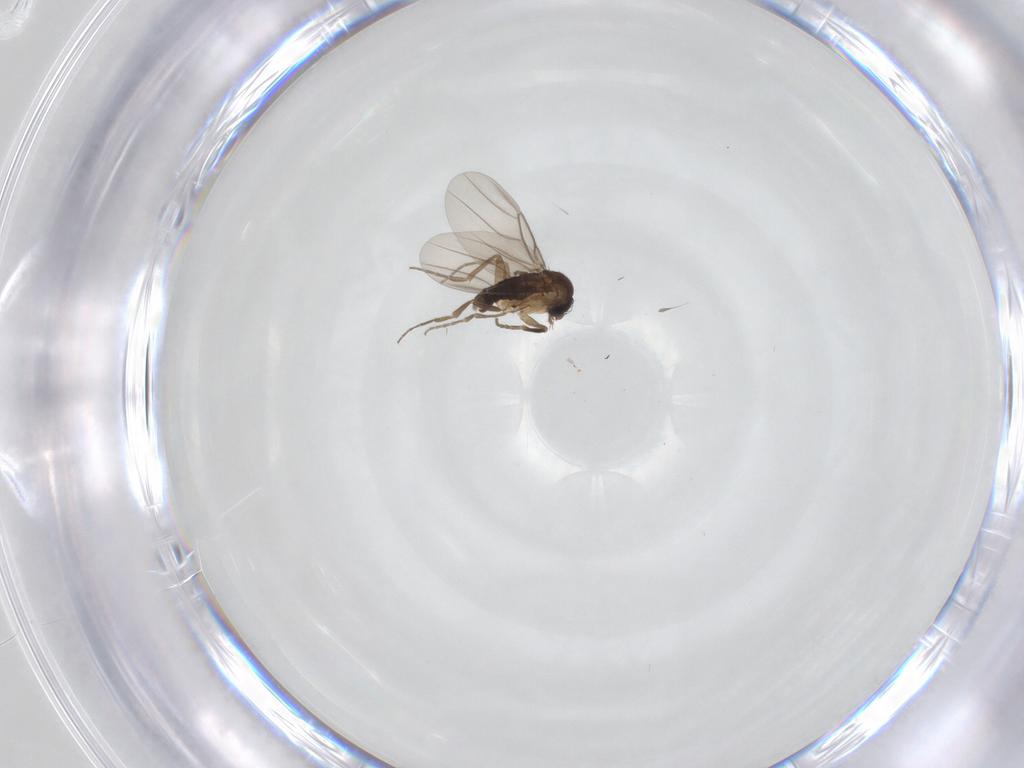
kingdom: Animalia
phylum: Arthropoda
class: Insecta
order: Diptera
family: Phoridae
